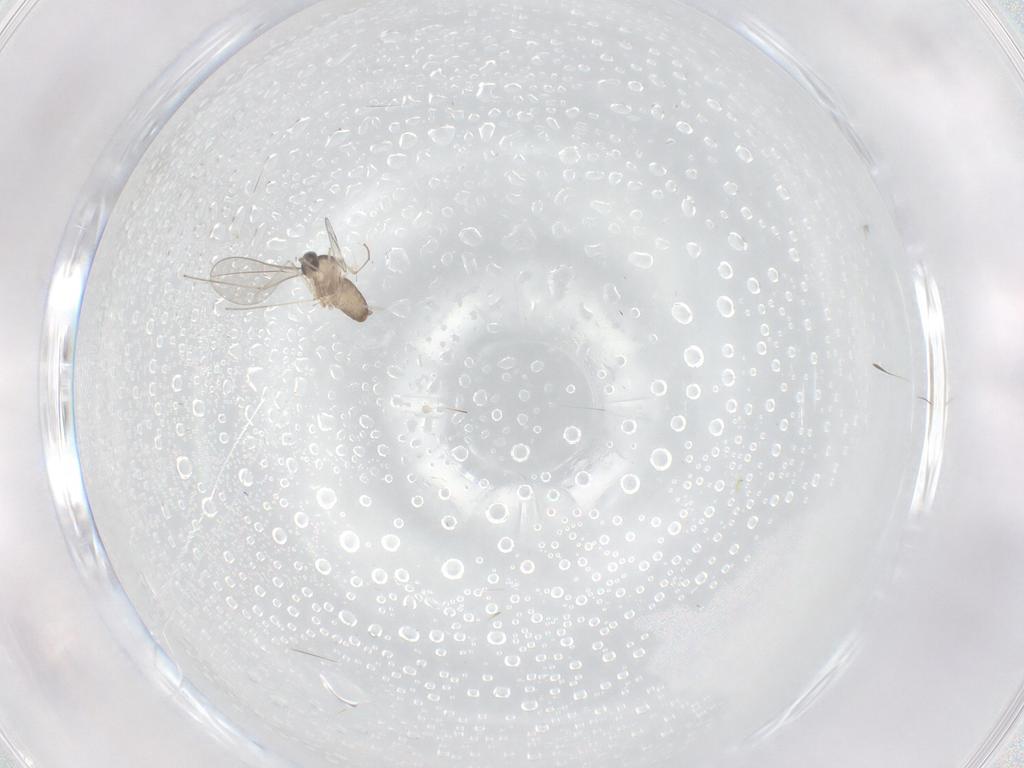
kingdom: Animalia
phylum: Arthropoda
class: Insecta
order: Diptera
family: Cecidomyiidae
